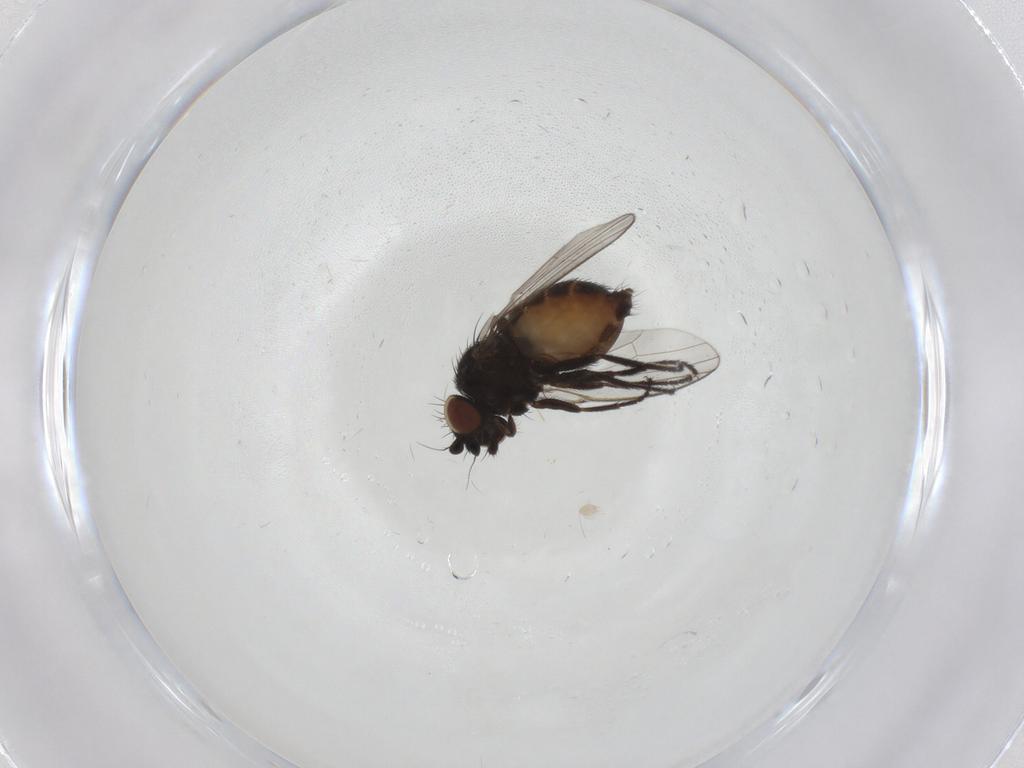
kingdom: Animalia
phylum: Arthropoda
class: Insecta
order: Diptera
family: Milichiidae
